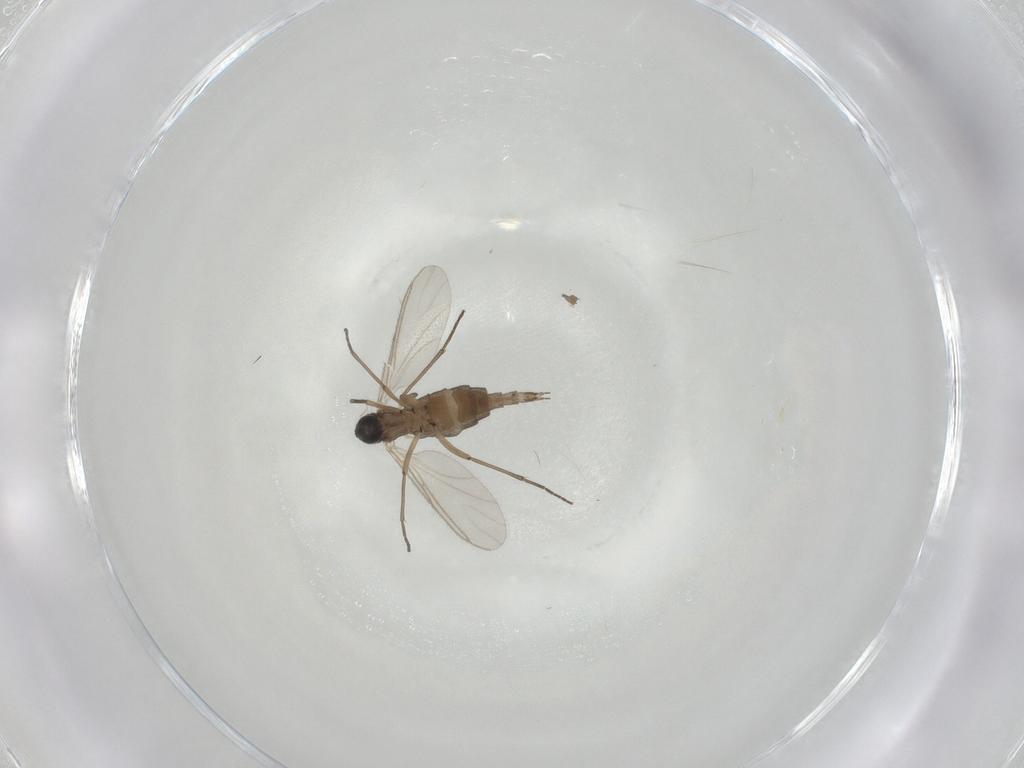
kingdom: Animalia
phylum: Arthropoda
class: Insecta
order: Diptera
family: Sciaridae
